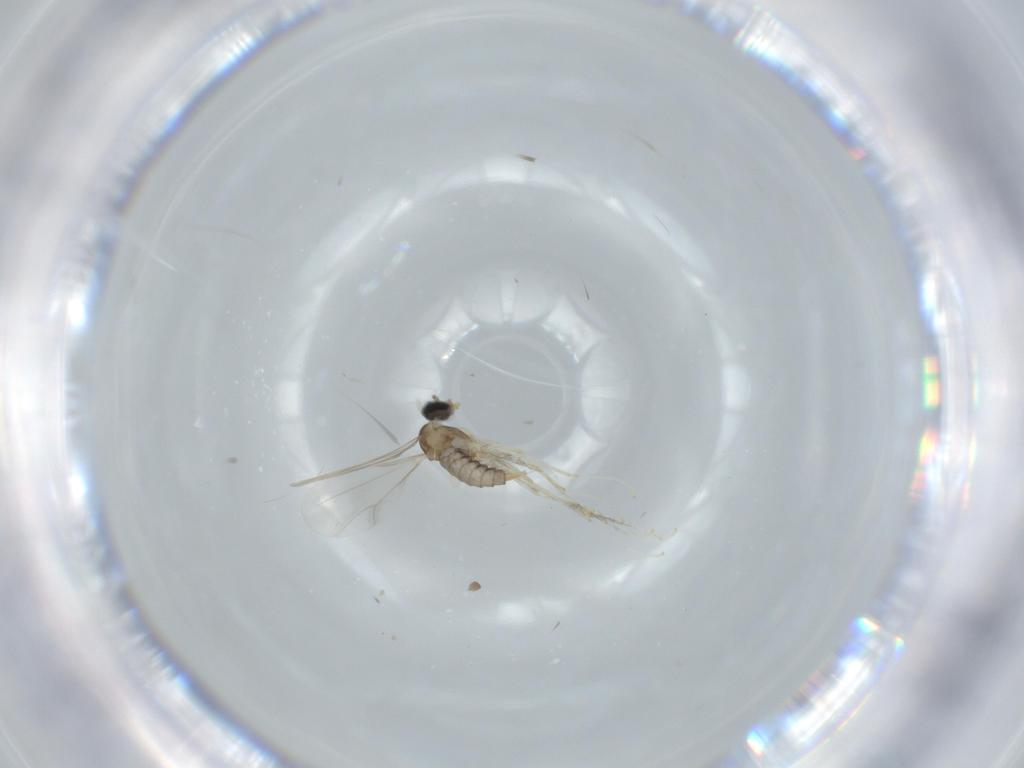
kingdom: Animalia
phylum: Arthropoda
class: Insecta
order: Diptera
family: Cecidomyiidae
